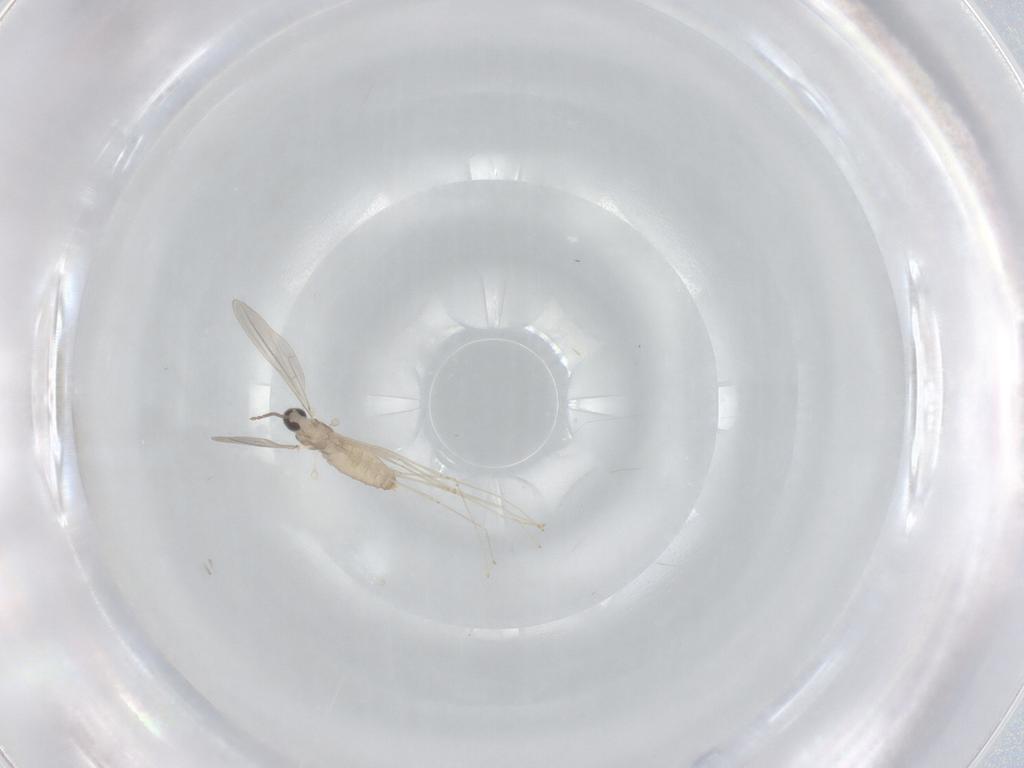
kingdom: Animalia
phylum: Arthropoda
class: Insecta
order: Diptera
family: Cecidomyiidae
